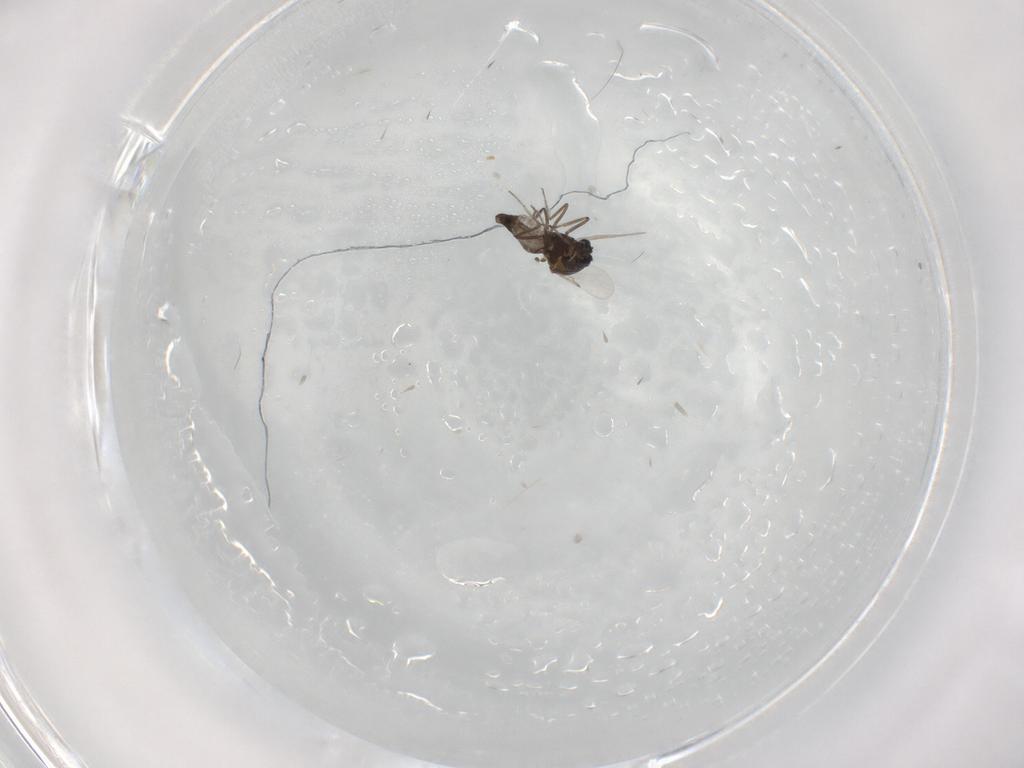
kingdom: Animalia
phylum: Arthropoda
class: Insecta
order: Diptera
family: Ceratopogonidae
